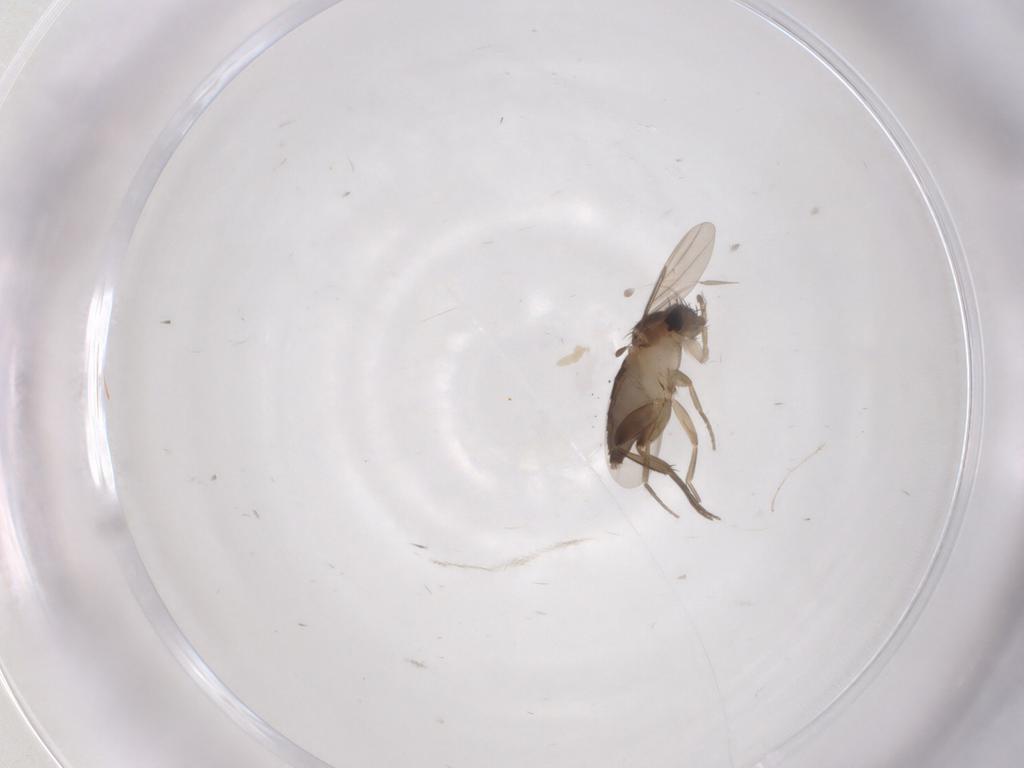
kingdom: Animalia
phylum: Arthropoda
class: Insecta
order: Diptera
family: Phoridae
